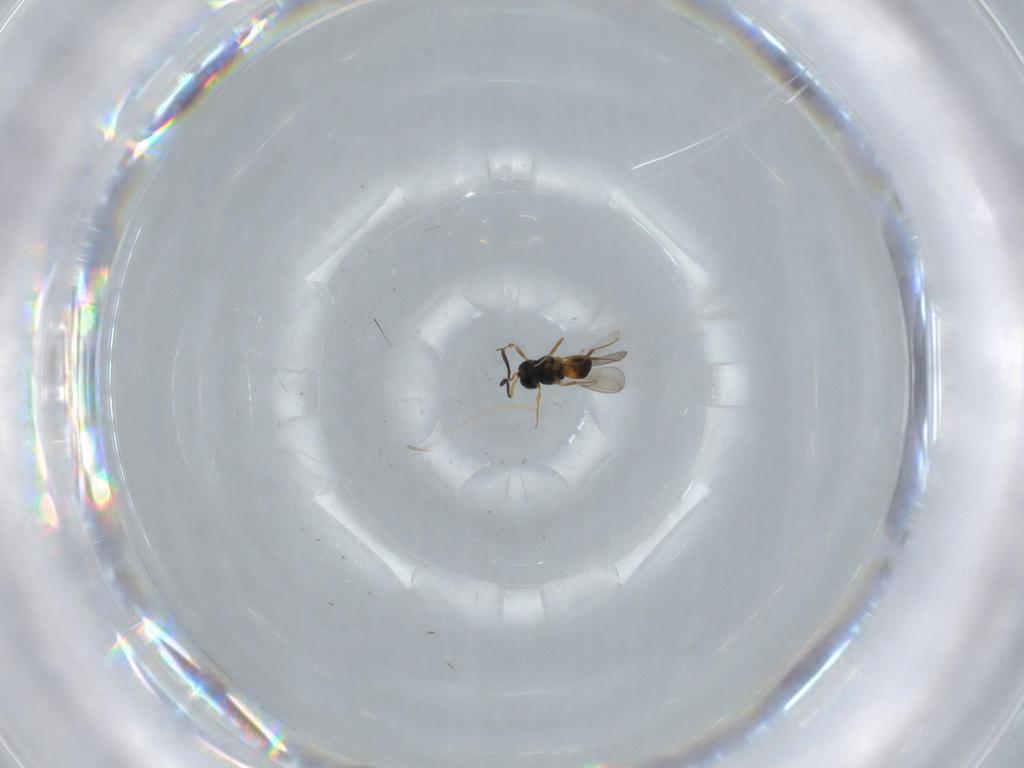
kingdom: Animalia
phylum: Arthropoda
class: Insecta
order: Hymenoptera
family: Scelionidae
